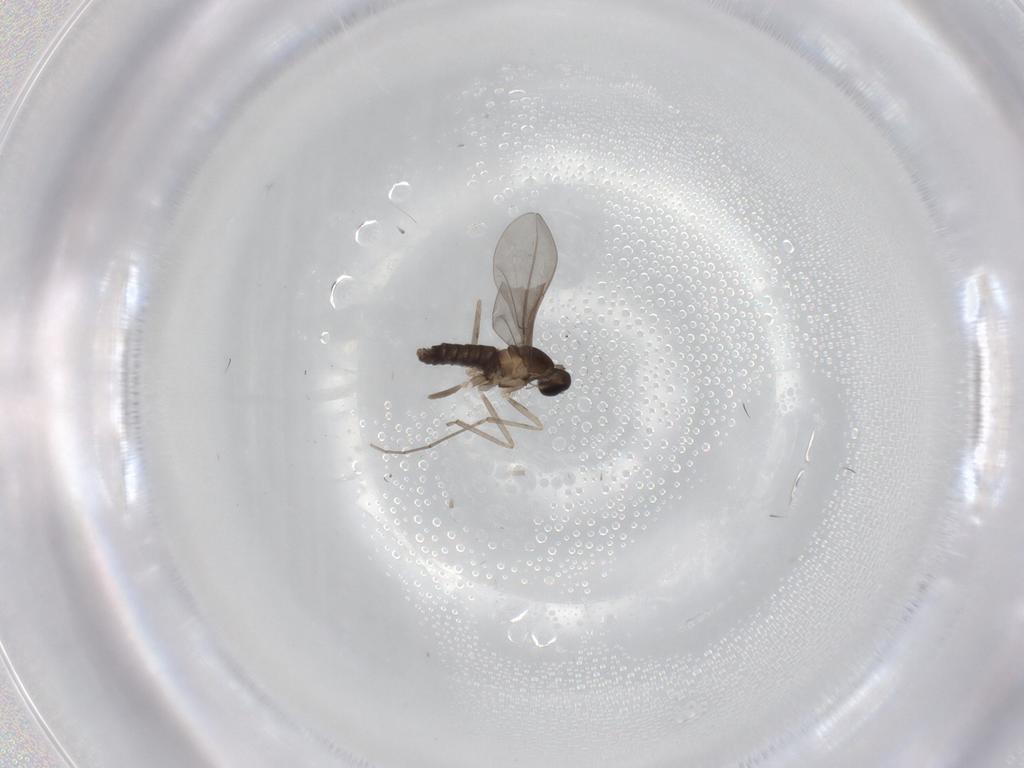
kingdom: Animalia
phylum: Arthropoda
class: Insecta
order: Diptera
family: Cecidomyiidae
